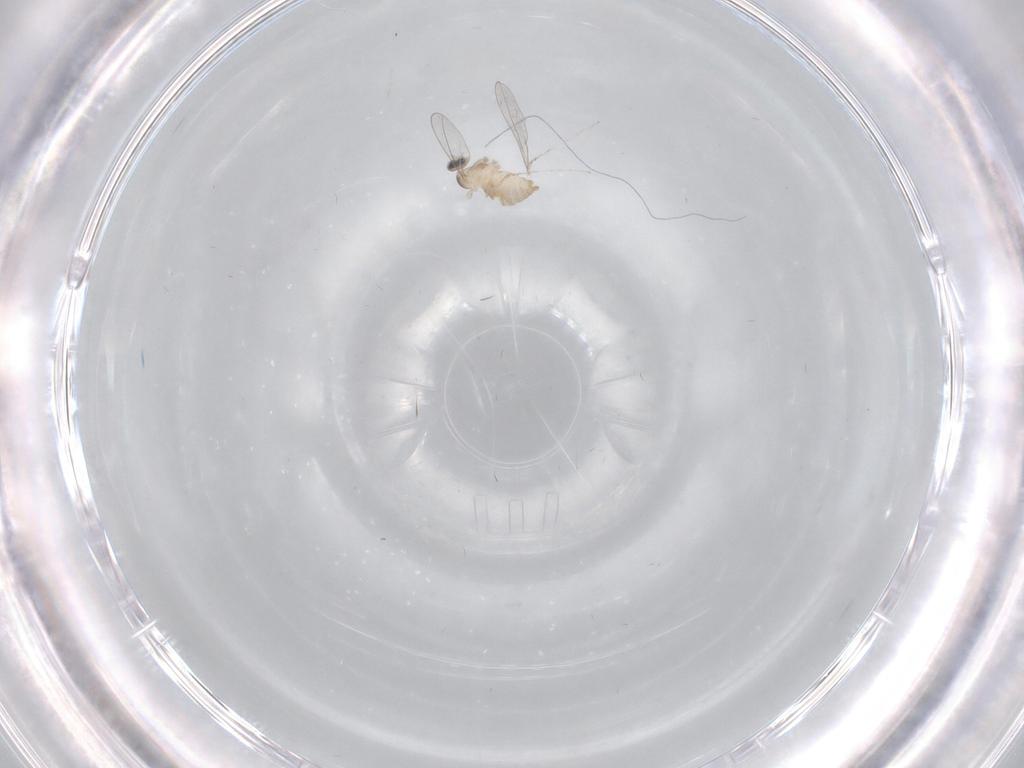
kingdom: Animalia
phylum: Arthropoda
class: Insecta
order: Diptera
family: Cecidomyiidae
